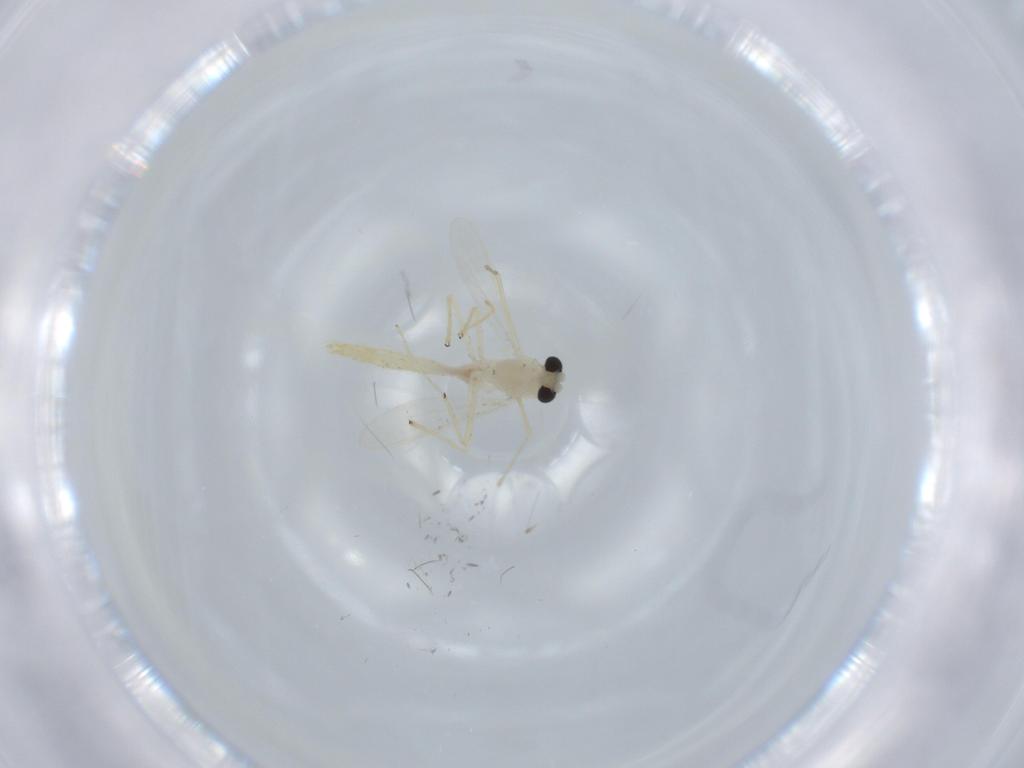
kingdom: Animalia
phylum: Arthropoda
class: Insecta
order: Diptera
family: Chironomidae
